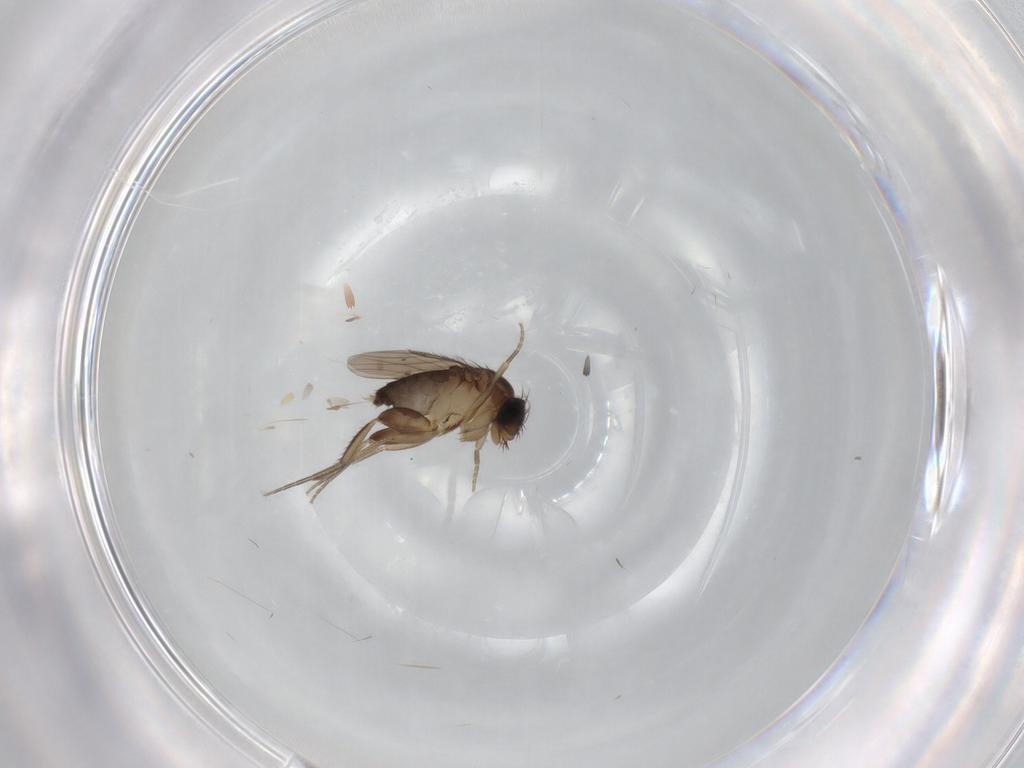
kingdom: Animalia
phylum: Arthropoda
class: Insecta
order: Diptera
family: Phoridae
